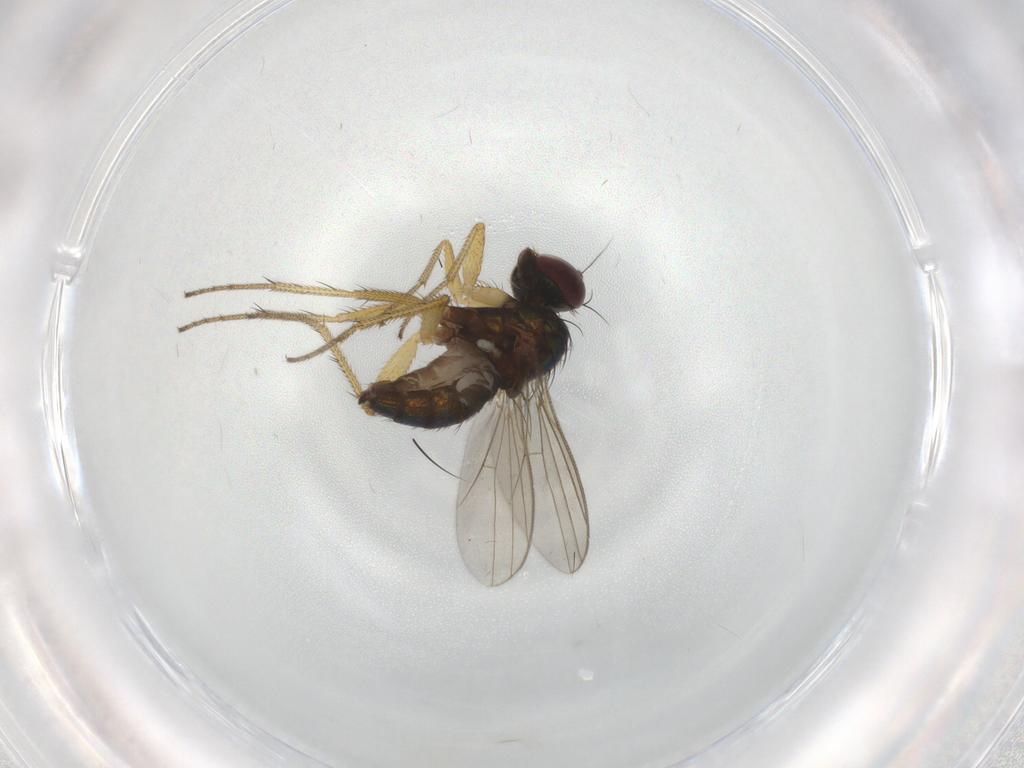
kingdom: Animalia
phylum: Arthropoda
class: Insecta
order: Diptera
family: Dolichopodidae
